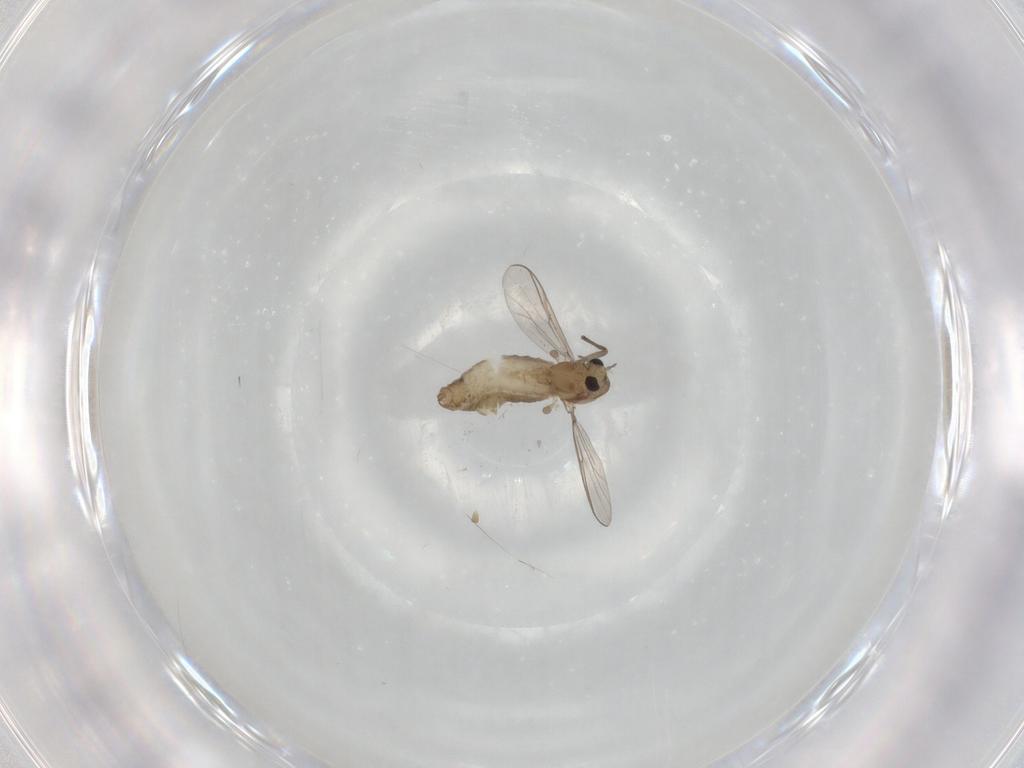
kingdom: Animalia
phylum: Arthropoda
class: Insecta
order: Diptera
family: Chironomidae
